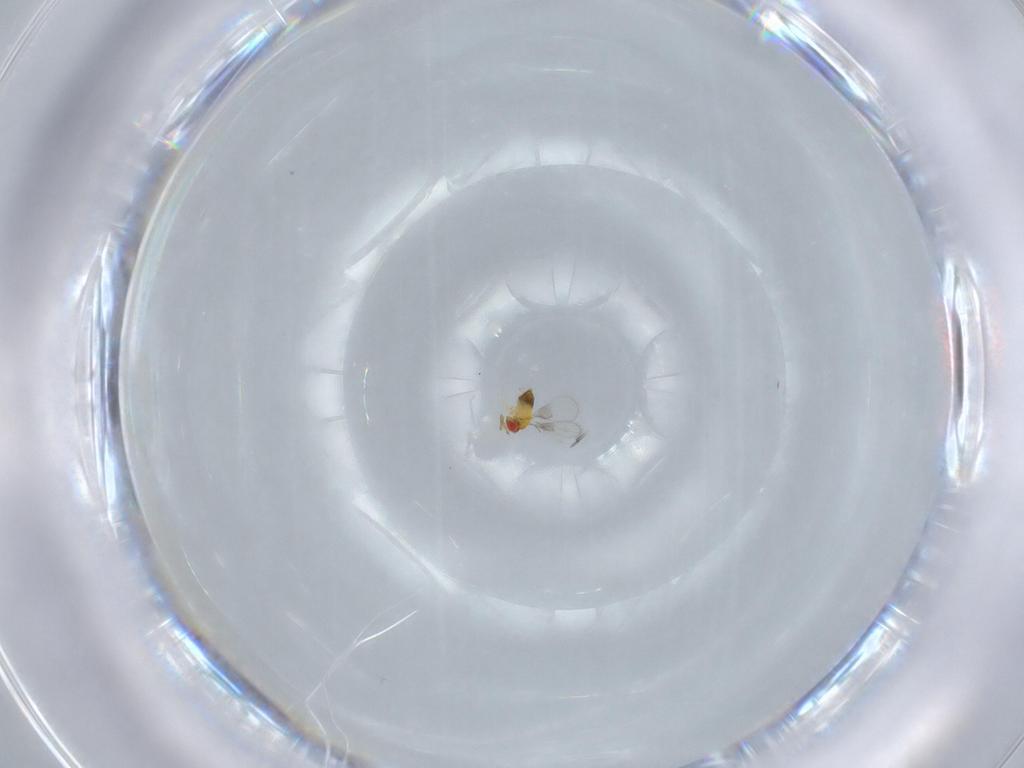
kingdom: Animalia
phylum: Arthropoda
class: Insecta
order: Hymenoptera
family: Trichogrammatidae
